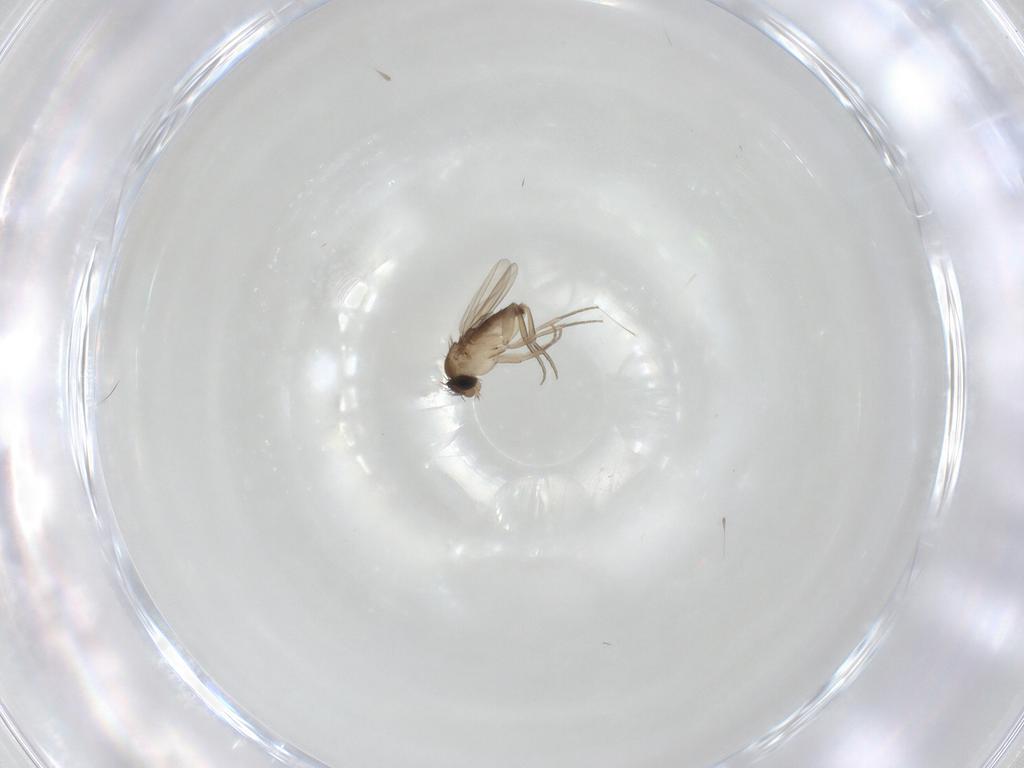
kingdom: Animalia
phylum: Arthropoda
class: Insecta
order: Diptera
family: Phoridae
